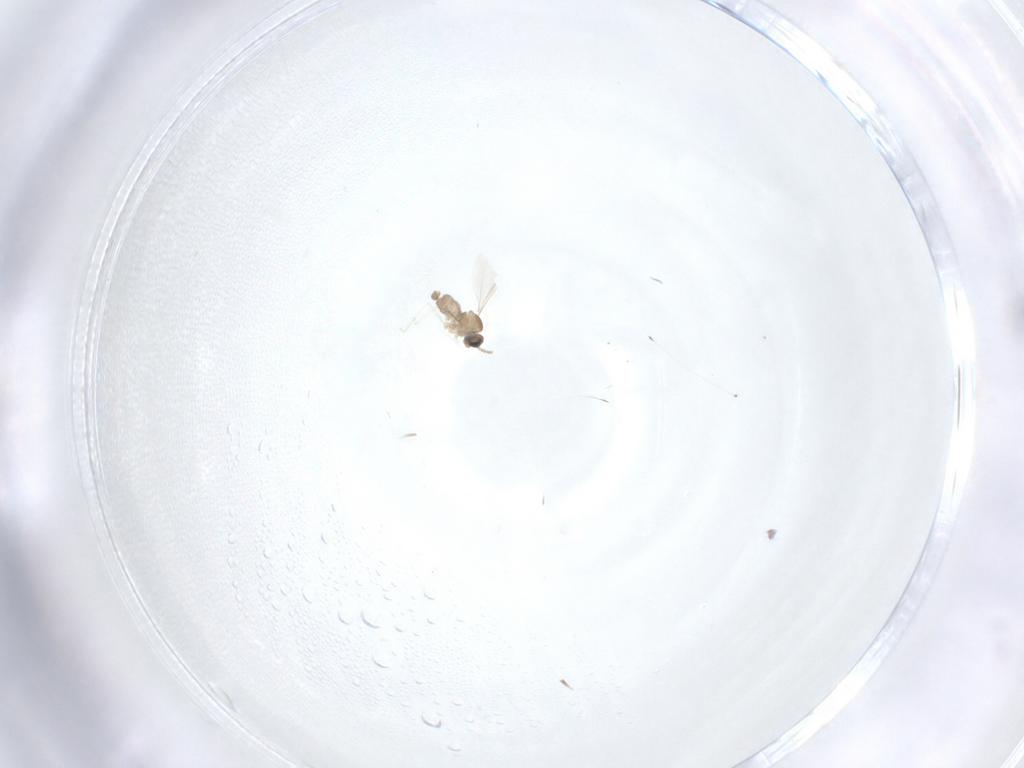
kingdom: Animalia
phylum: Arthropoda
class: Insecta
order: Diptera
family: Cecidomyiidae
